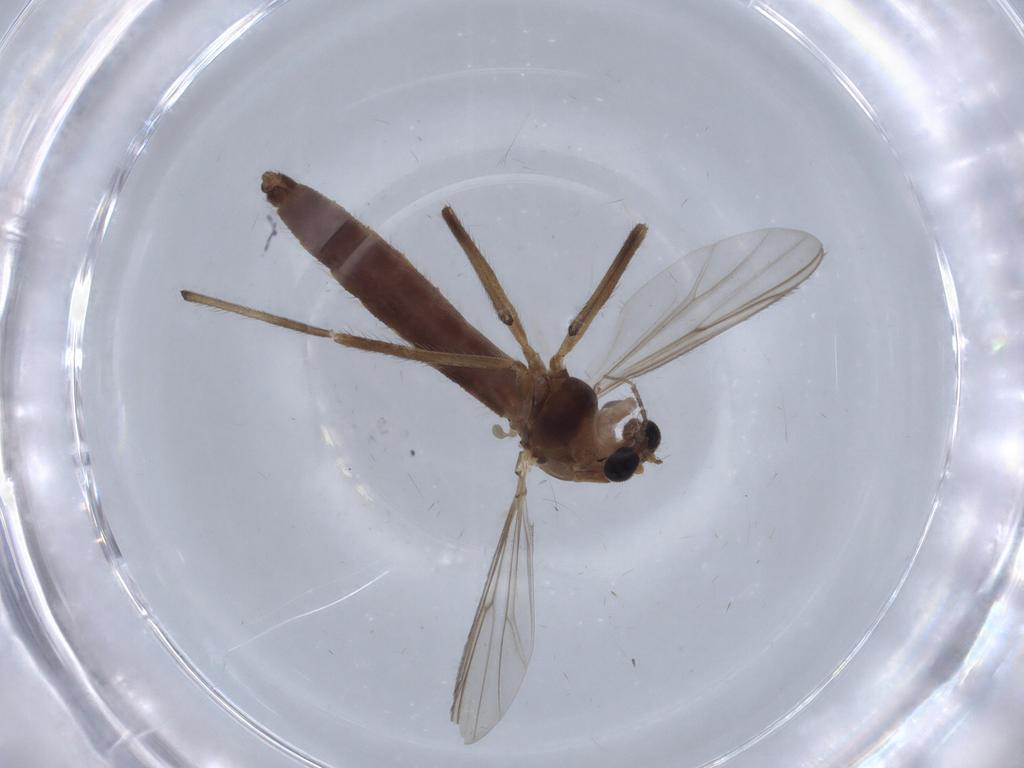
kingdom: Animalia
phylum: Arthropoda
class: Insecta
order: Diptera
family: Chironomidae
